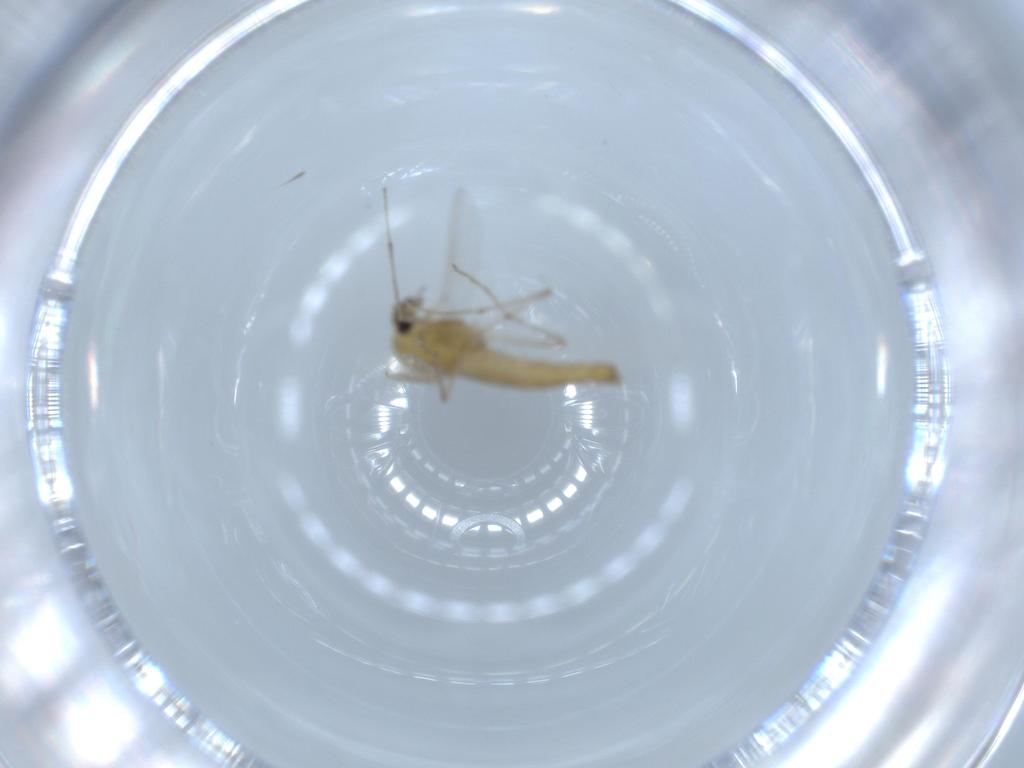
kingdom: Animalia
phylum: Arthropoda
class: Insecta
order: Diptera
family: Chironomidae
